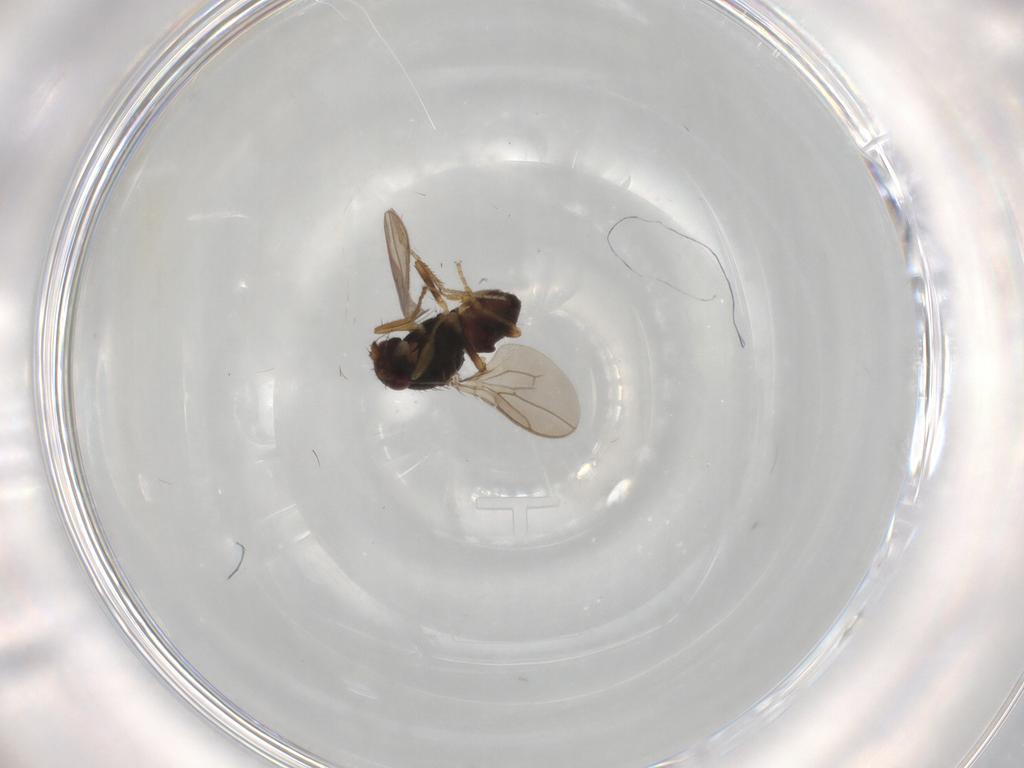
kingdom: Animalia
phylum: Arthropoda
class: Insecta
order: Diptera
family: Sphaeroceridae
